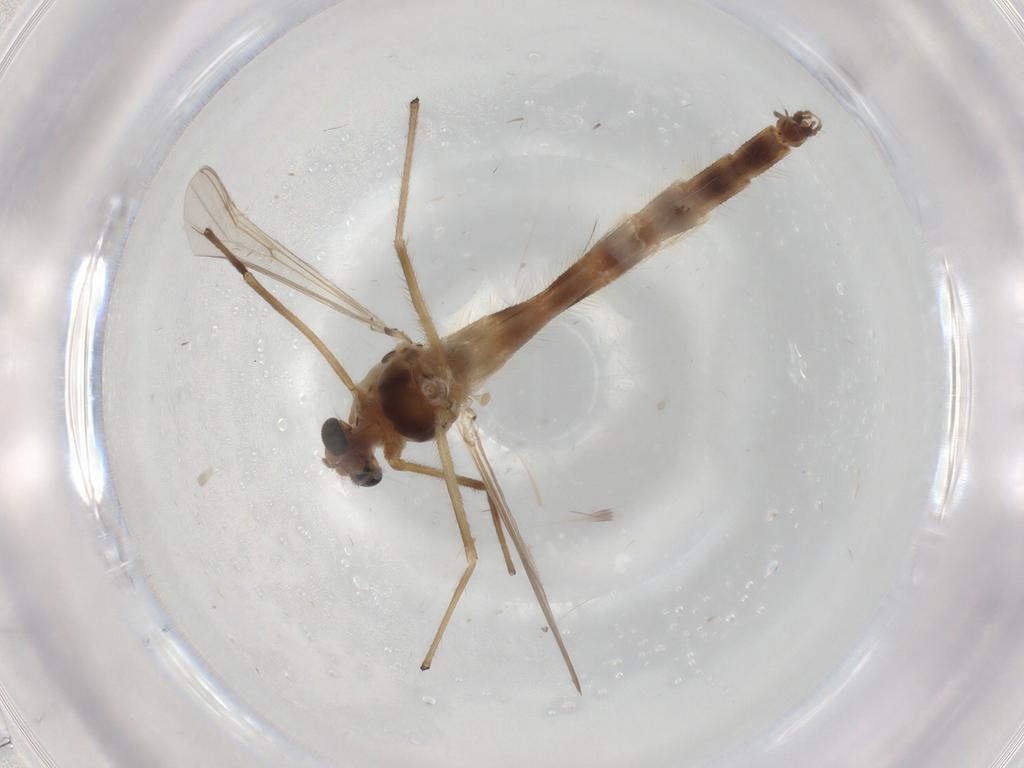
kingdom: Animalia
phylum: Arthropoda
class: Insecta
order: Diptera
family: Chironomidae
